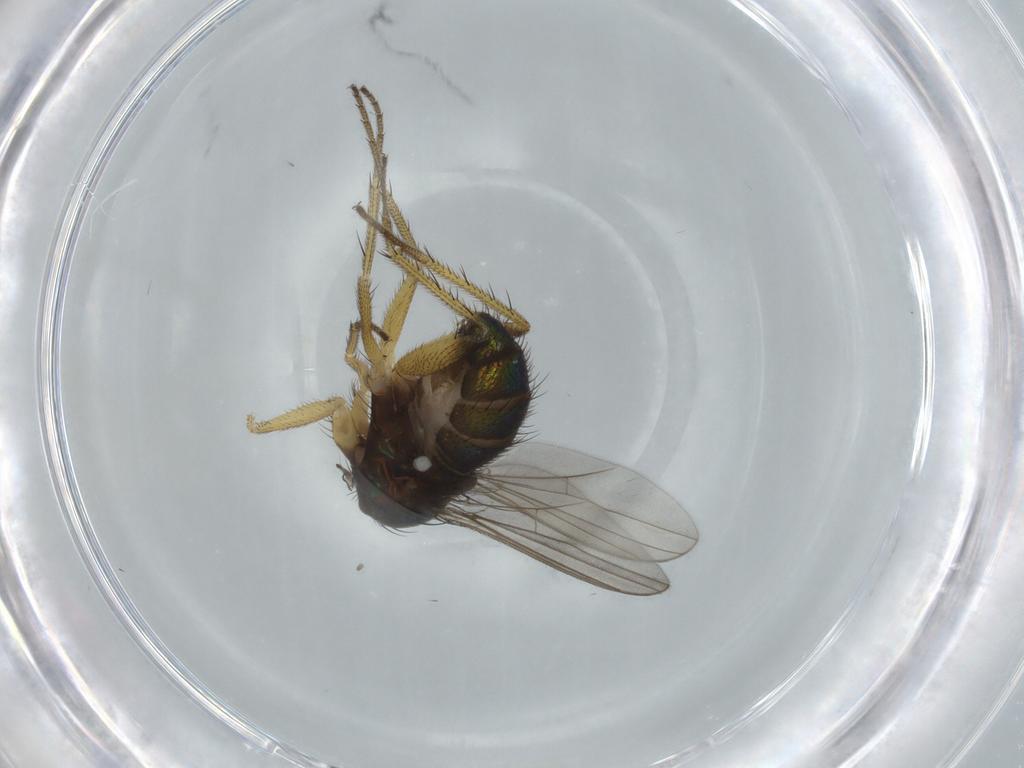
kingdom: Animalia
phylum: Arthropoda
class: Insecta
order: Diptera
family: Dolichopodidae
